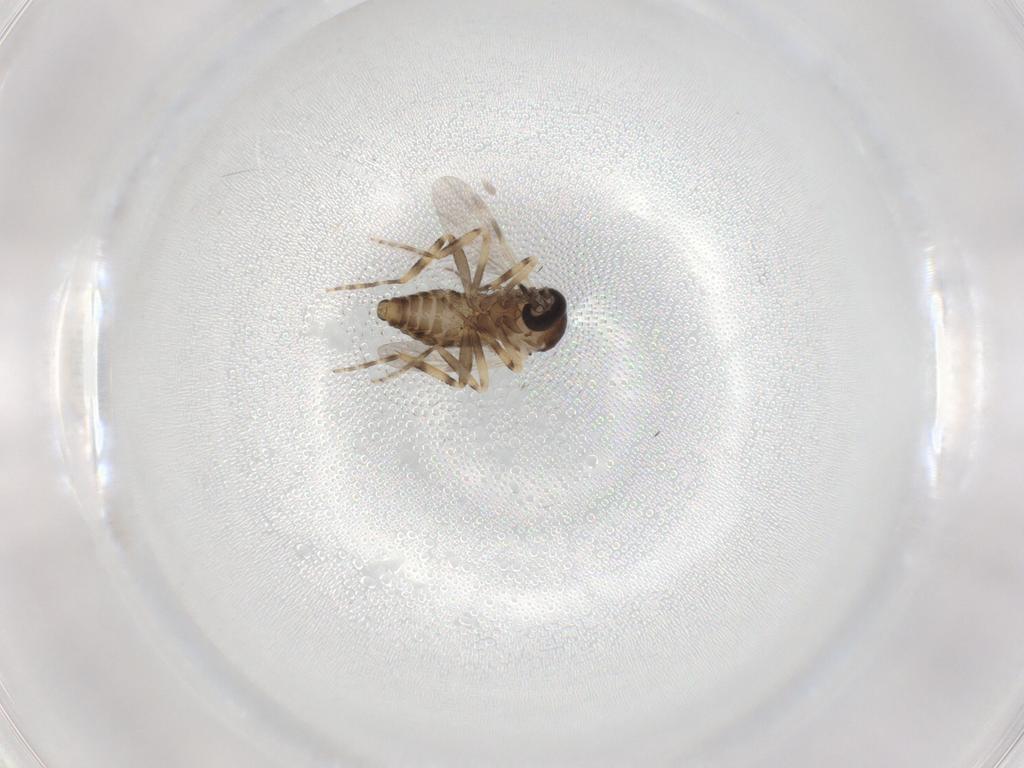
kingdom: Animalia
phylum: Arthropoda
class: Insecta
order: Diptera
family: Ceratopogonidae
